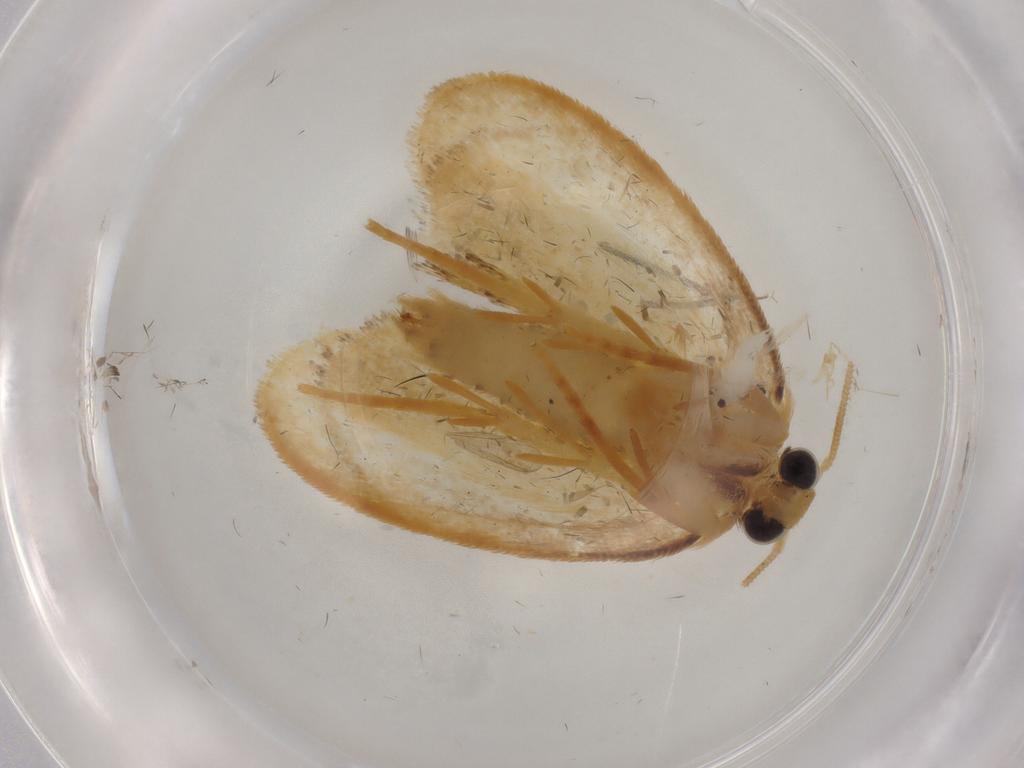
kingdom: Animalia
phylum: Arthropoda
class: Insecta
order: Lepidoptera
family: Psychidae
